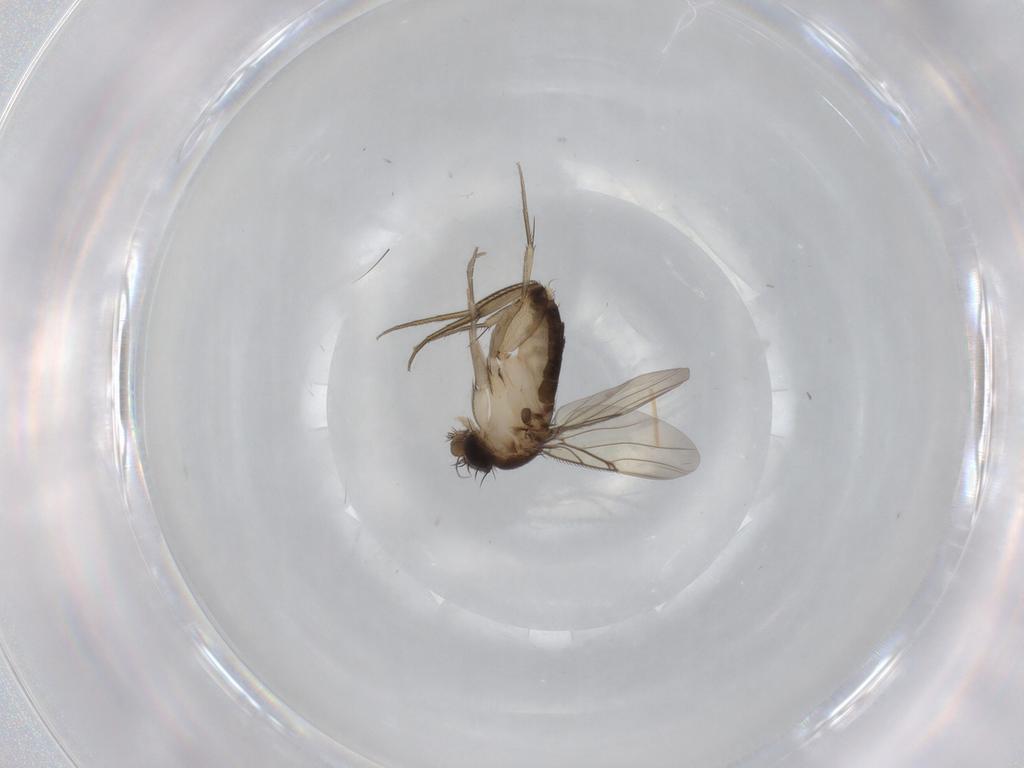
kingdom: Animalia
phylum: Arthropoda
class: Insecta
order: Diptera
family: Phoridae
